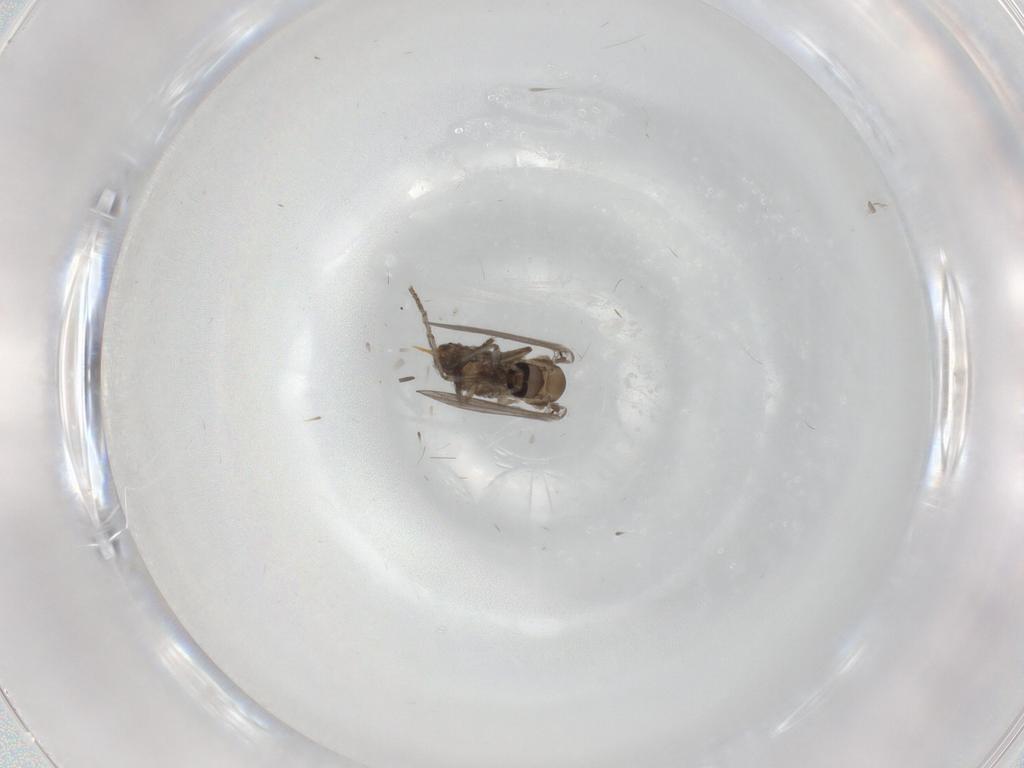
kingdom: Animalia
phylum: Arthropoda
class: Insecta
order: Diptera
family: Psychodidae
